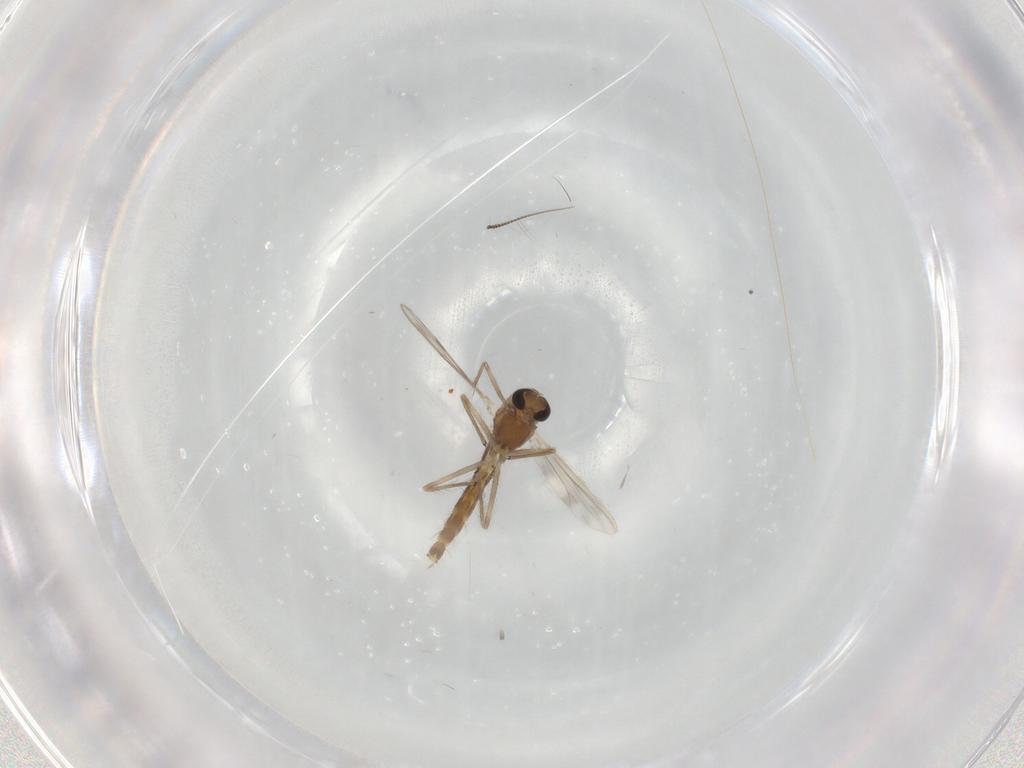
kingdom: Animalia
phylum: Arthropoda
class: Insecta
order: Diptera
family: Chironomidae
